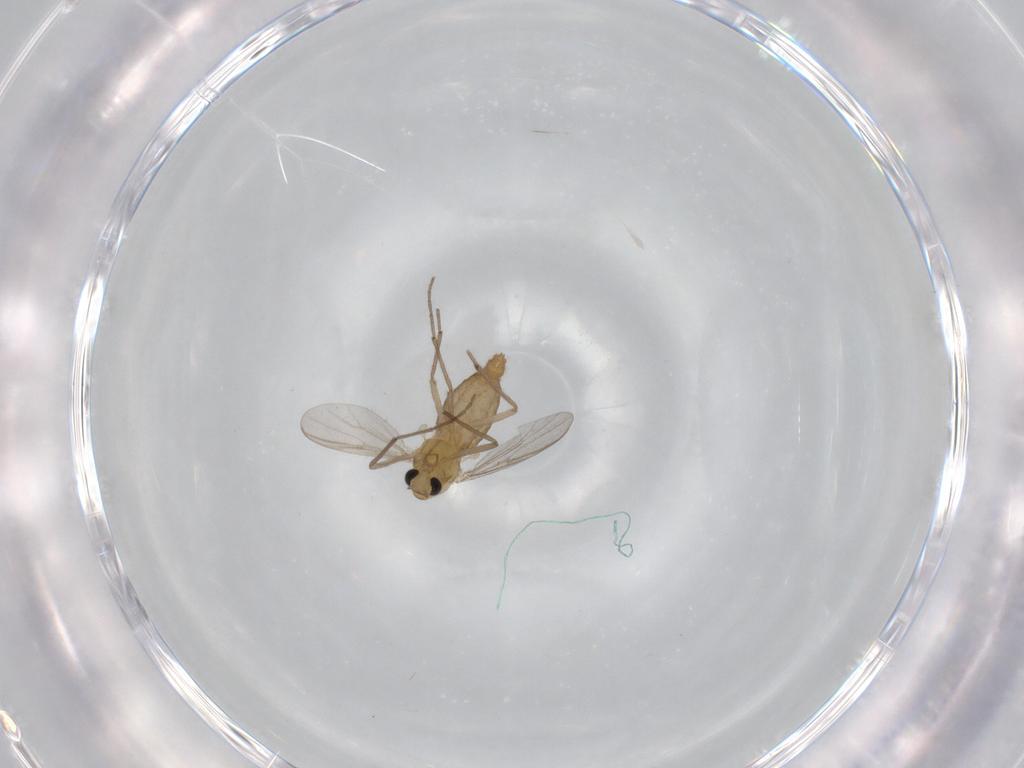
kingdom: Animalia
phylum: Arthropoda
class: Insecta
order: Diptera
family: Chironomidae
